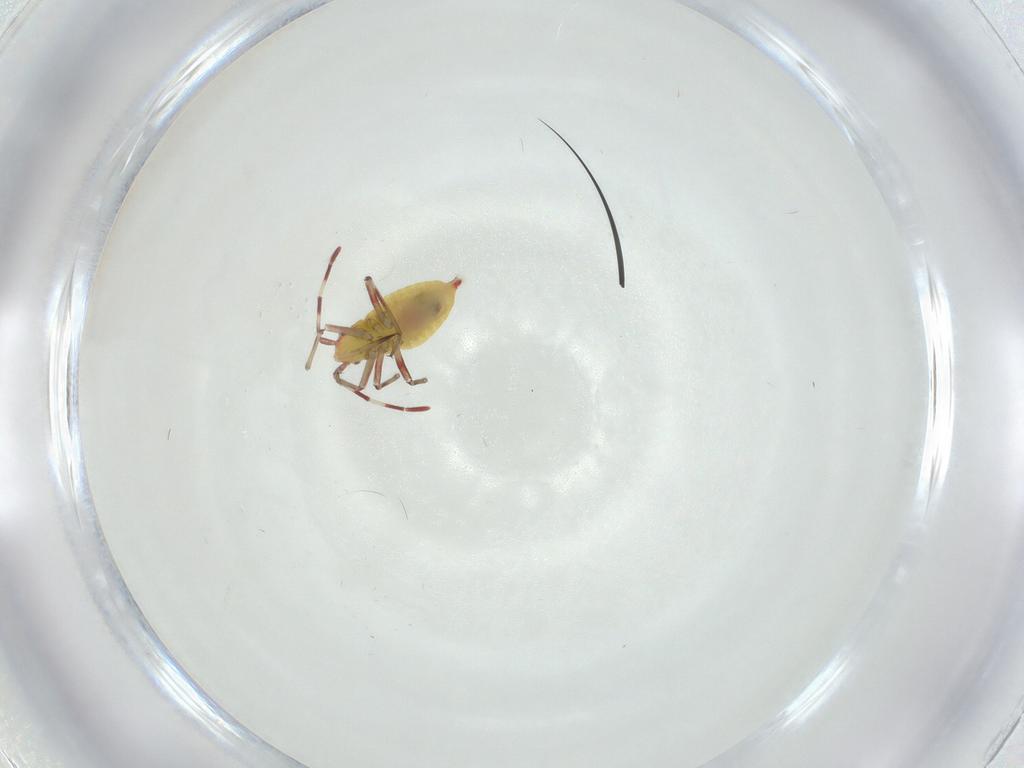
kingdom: Animalia
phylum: Arthropoda
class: Insecta
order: Hemiptera
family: Miridae
